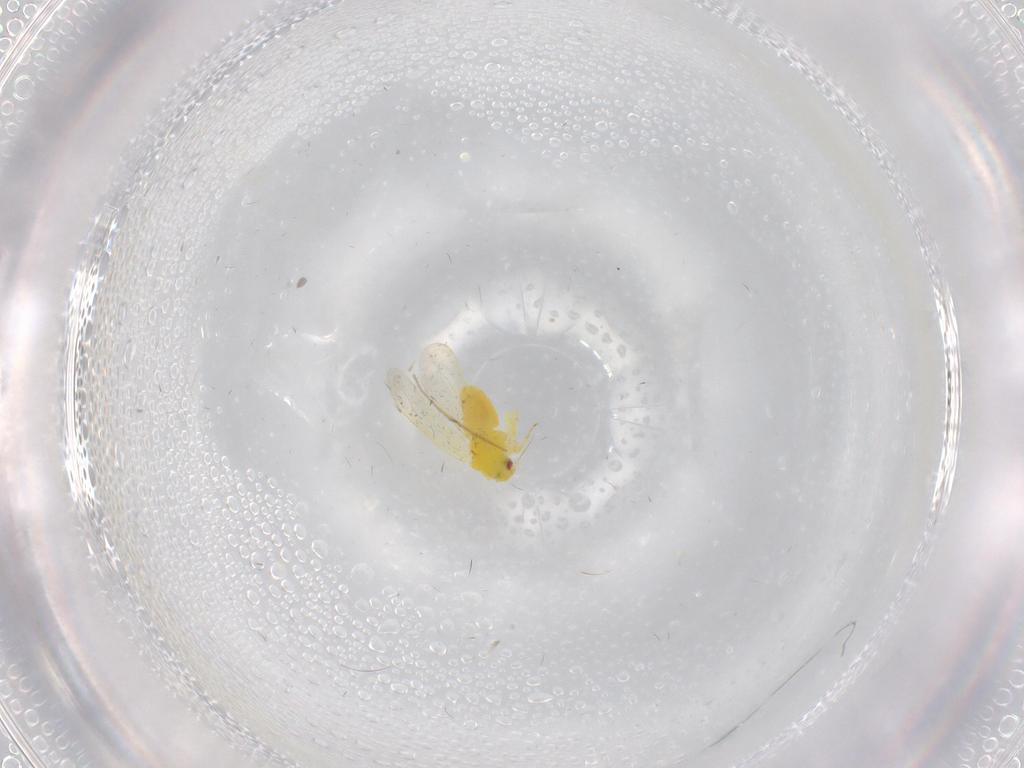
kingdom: Animalia
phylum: Arthropoda
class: Insecta
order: Hemiptera
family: Aleyrodidae
